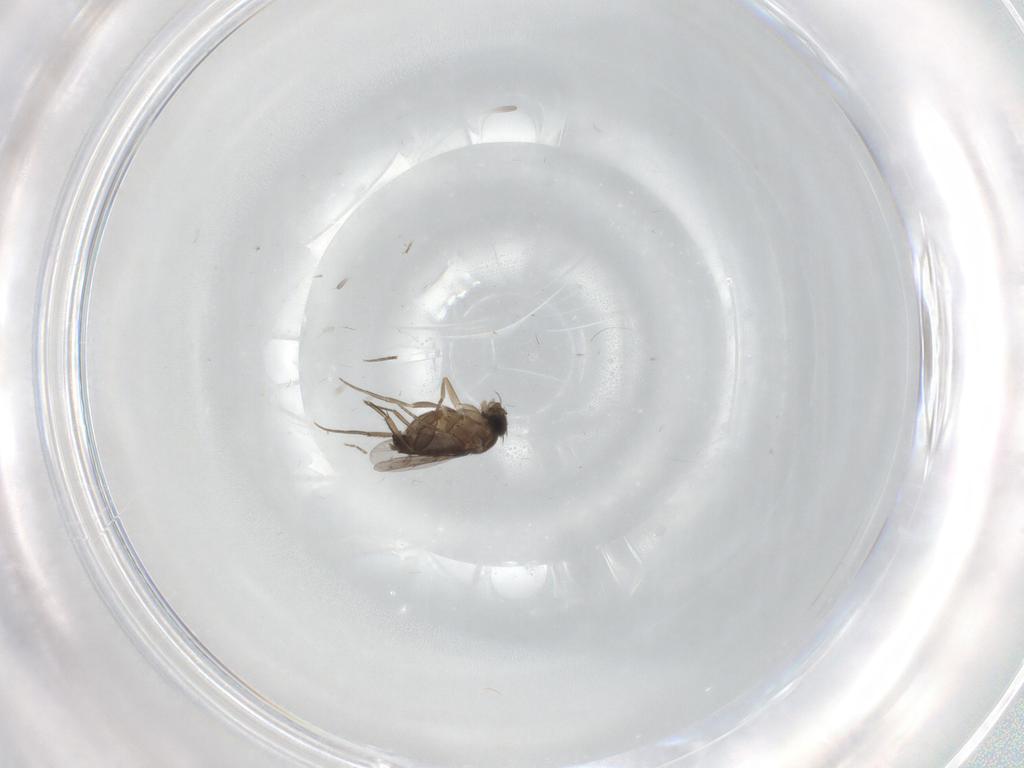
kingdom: Animalia
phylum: Arthropoda
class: Insecta
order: Diptera
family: Phoridae
